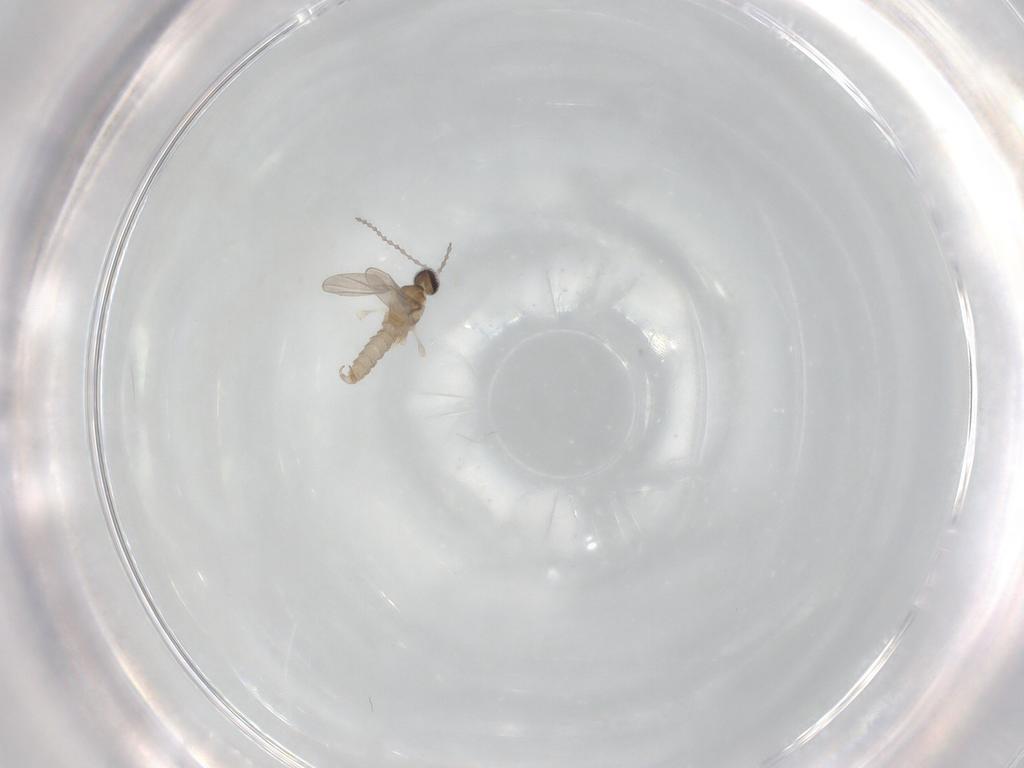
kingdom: Animalia
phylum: Arthropoda
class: Insecta
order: Diptera
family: Cecidomyiidae
